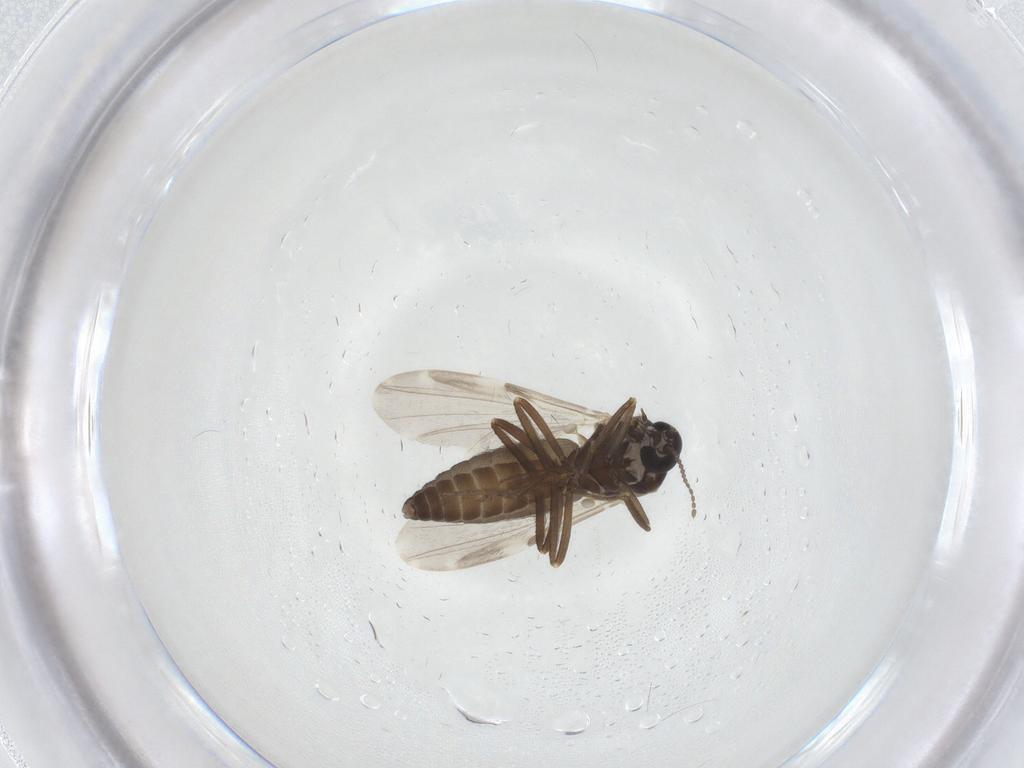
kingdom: Animalia
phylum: Arthropoda
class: Insecta
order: Diptera
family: Ceratopogonidae
